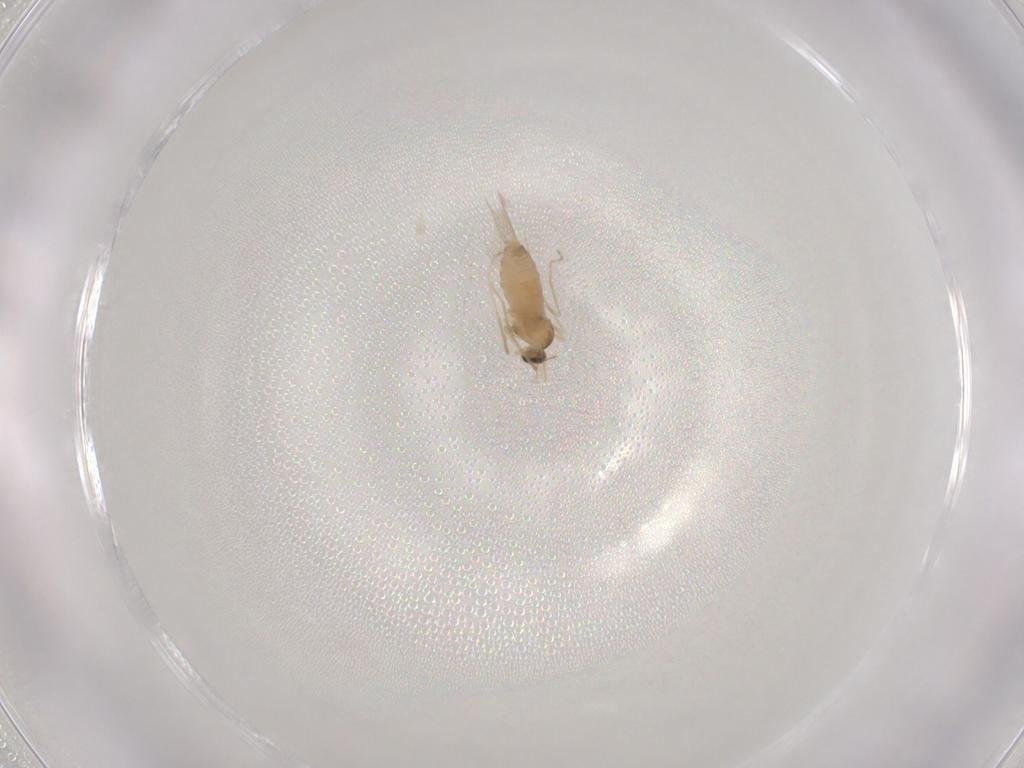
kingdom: Animalia
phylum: Arthropoda
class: Insecta
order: Diptera
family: Cecidomyiidae
